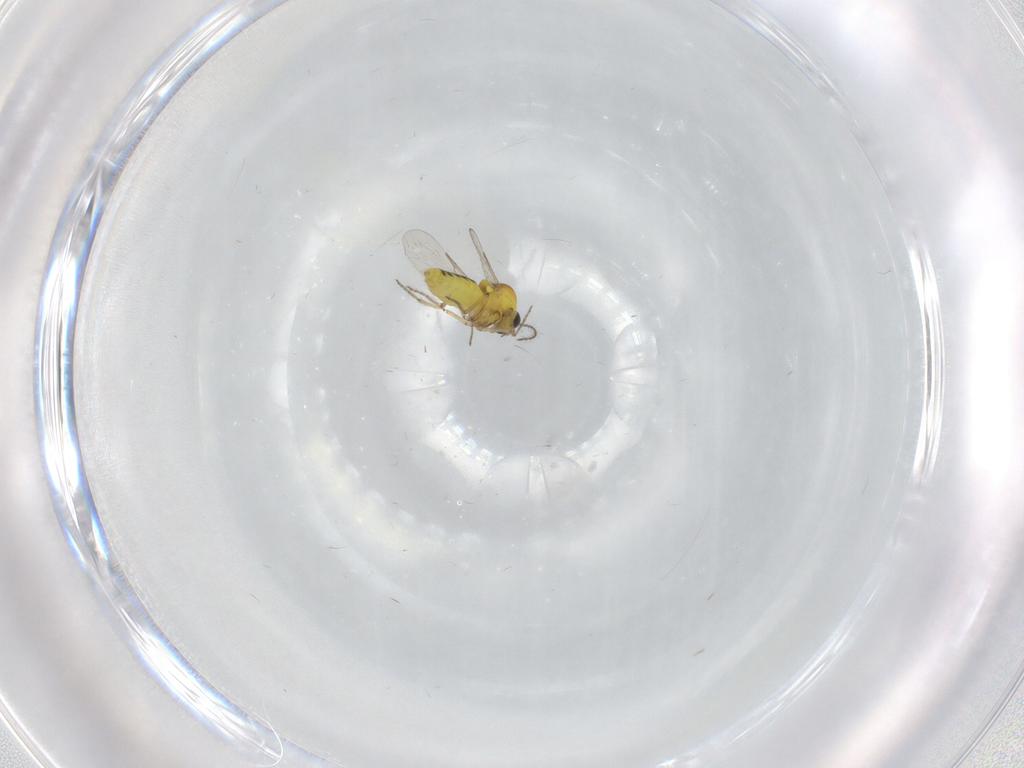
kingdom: Animalia
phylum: Arthropoda
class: Insecta
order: Diptera
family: Ceratopogonidae
